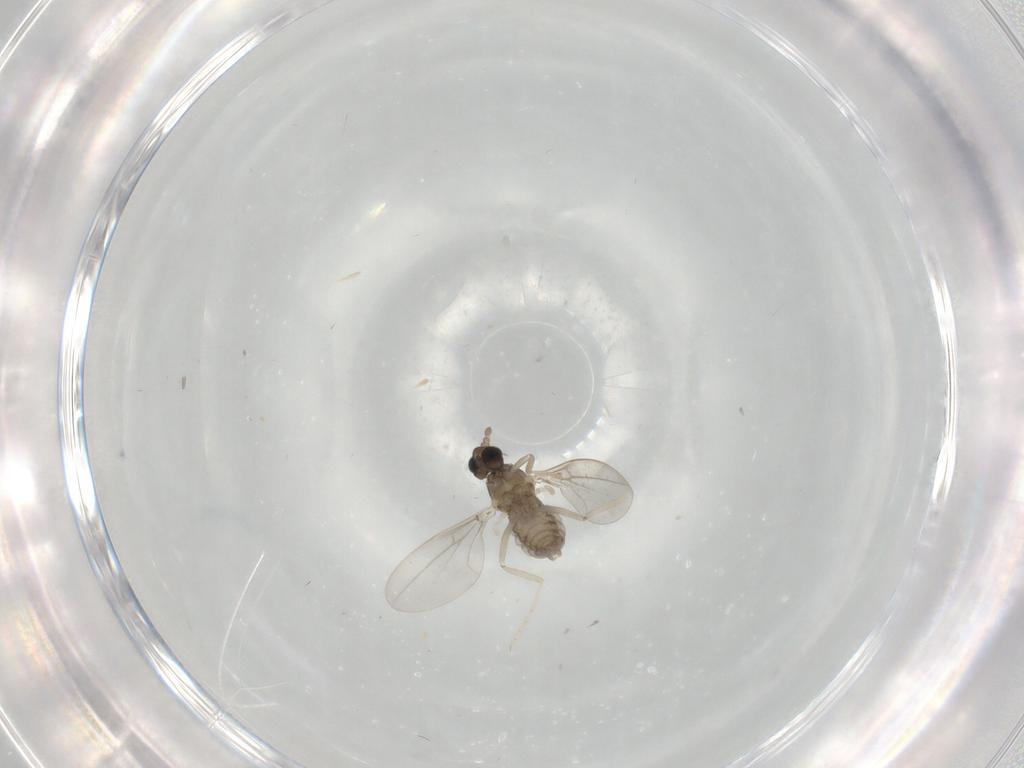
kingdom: Animalia
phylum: Arthropoda
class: Insecta
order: Diptera
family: Cecidomyiidae
